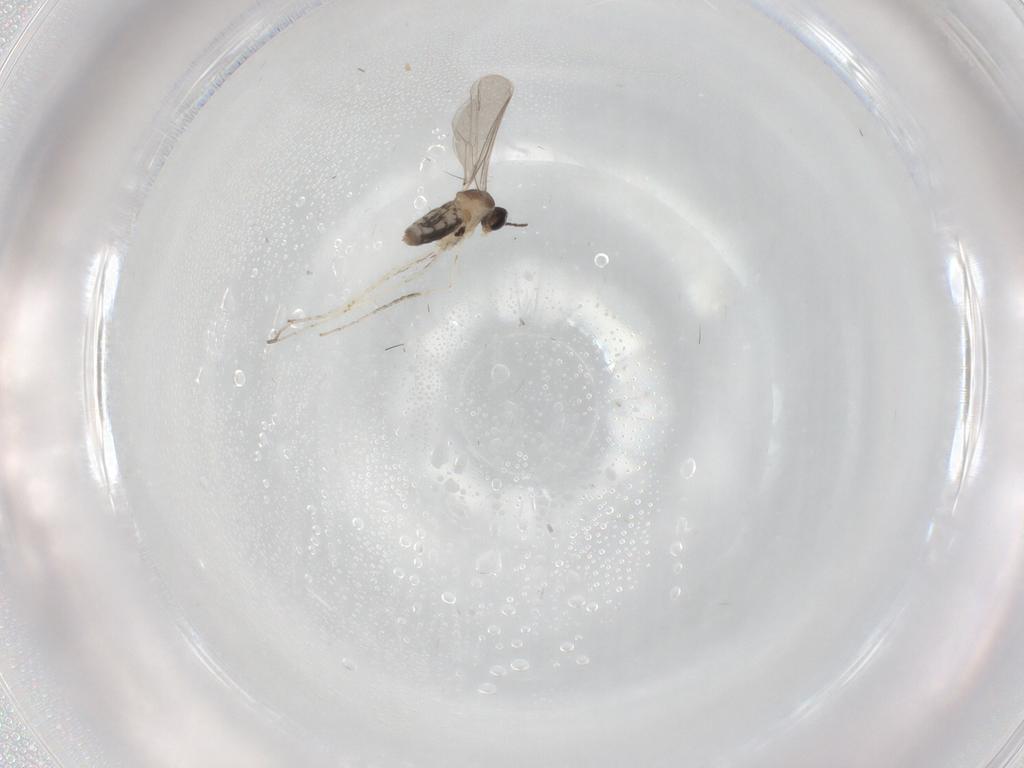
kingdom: Animalia
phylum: Arthropoda
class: Insecta
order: Diptera
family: Cecidomyiidae
